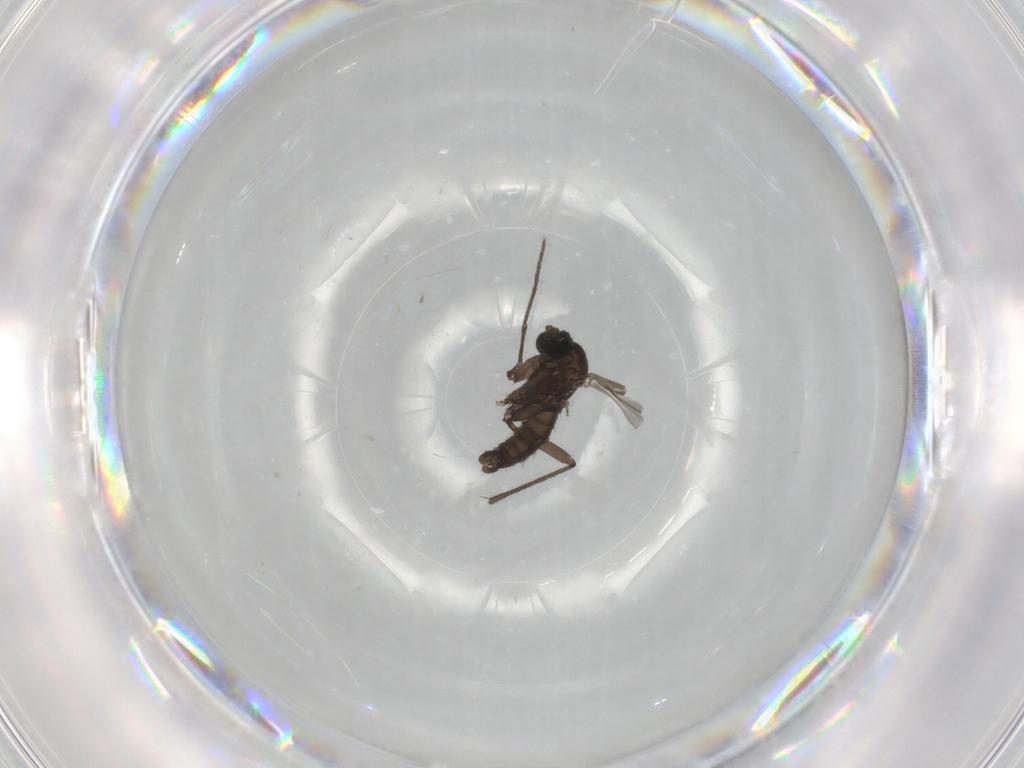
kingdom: Animalia
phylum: Arthropoda
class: Insecta
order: Diptera
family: Sciaridae
